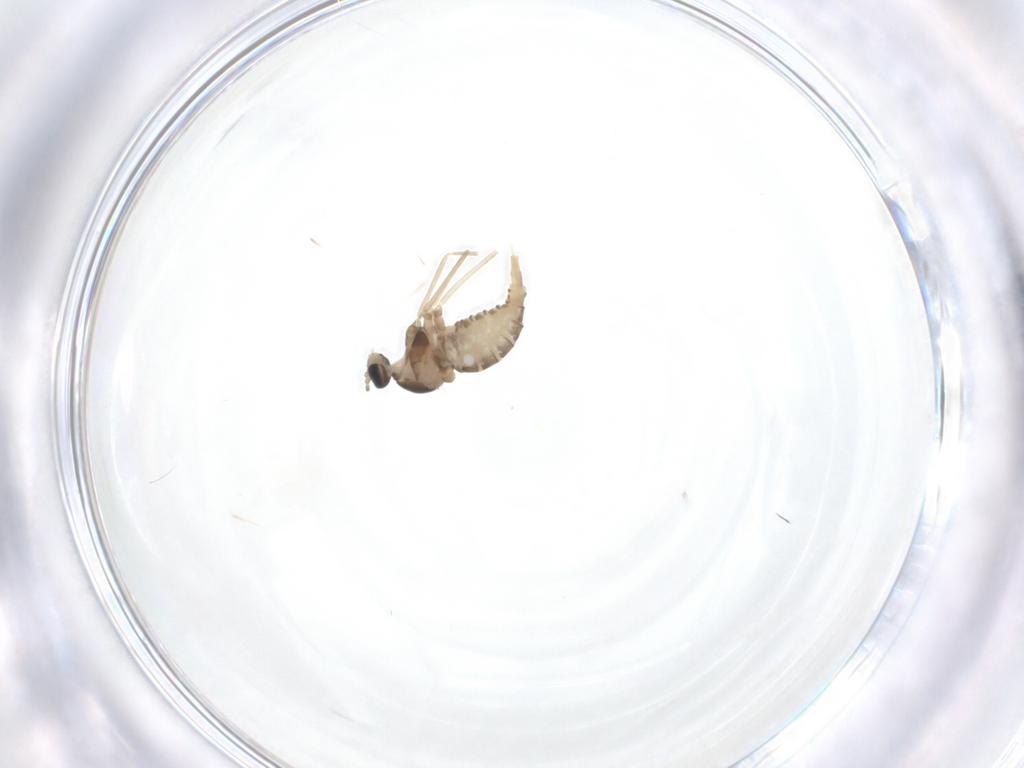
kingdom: Animalia
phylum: Arthropoda
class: Insecta
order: Diptera
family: Cecidomyiidae
